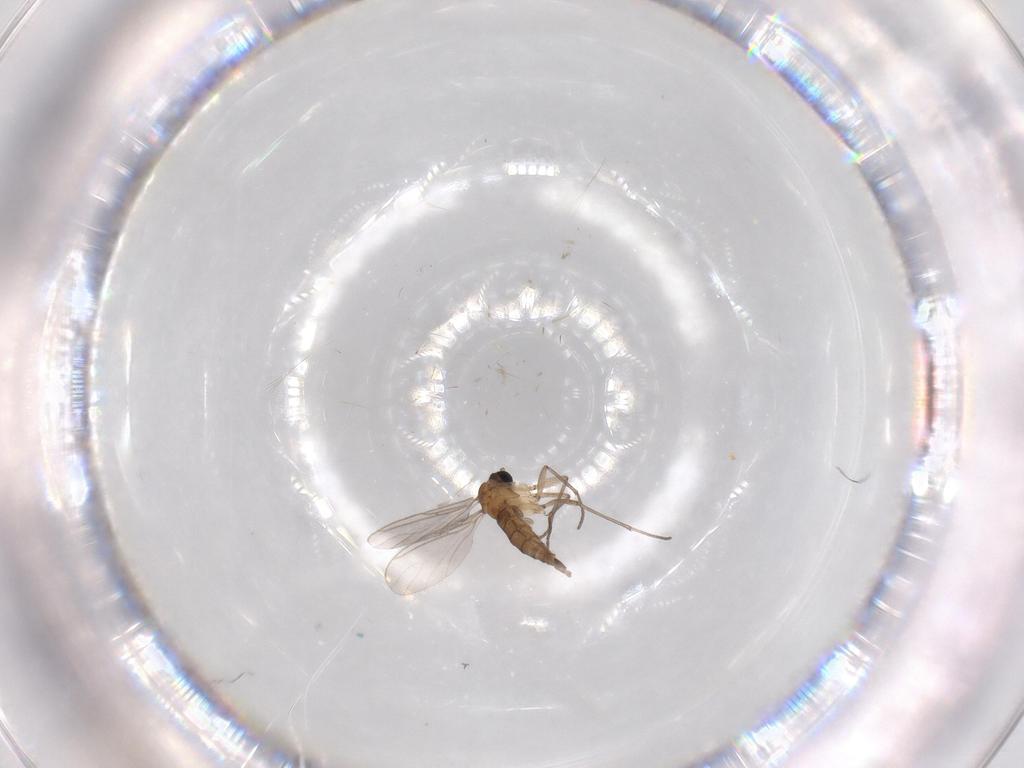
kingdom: Animalia
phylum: Arthropoda
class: Insecta
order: Diptera
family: Sciaridae
